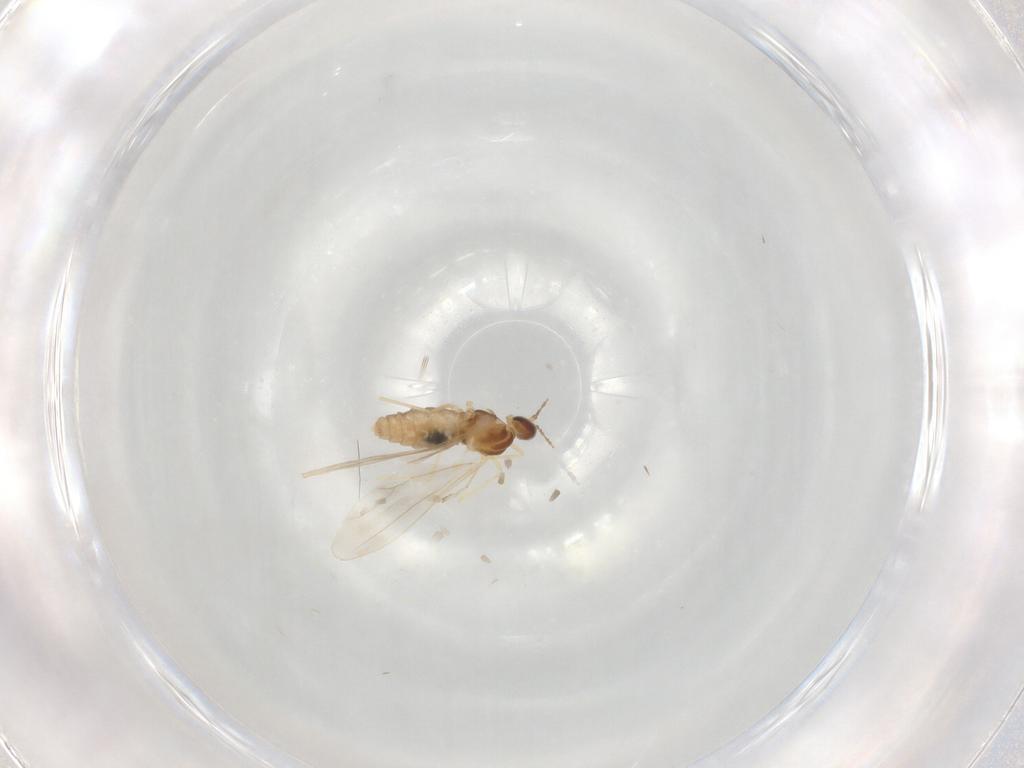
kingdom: Animalia
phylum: Arthropoda
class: Insecta
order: Diptera
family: Cecidomyiidae
